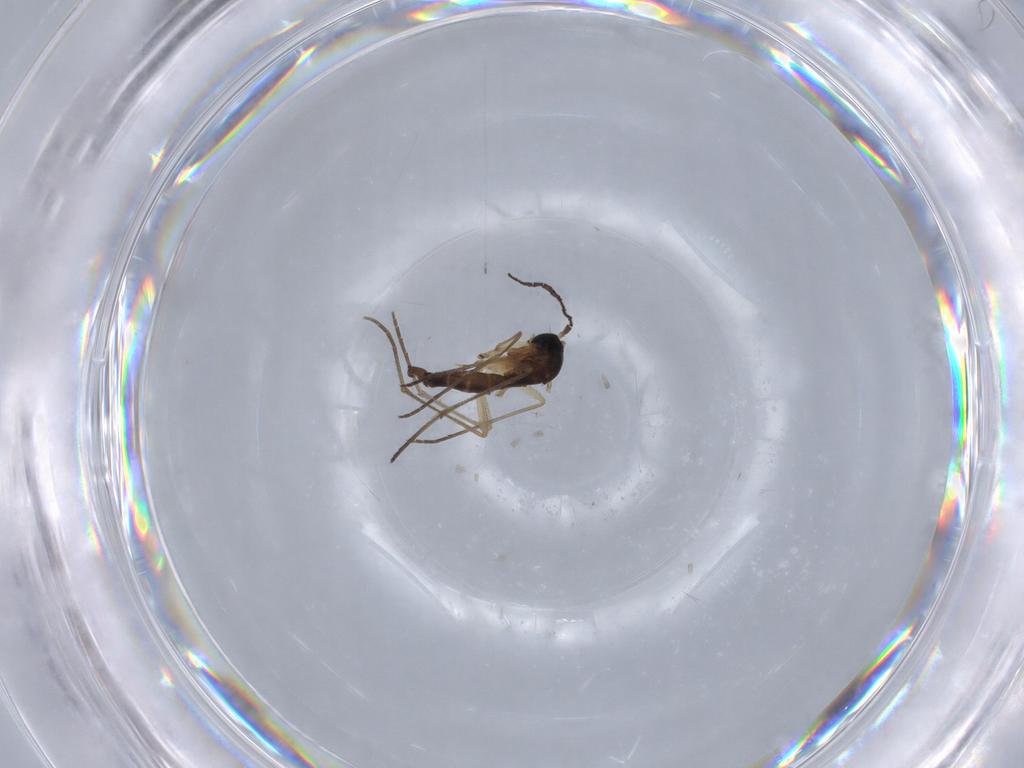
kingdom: Animalia
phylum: Arthropoda
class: Insecta
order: Diptera
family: Sciaridae
